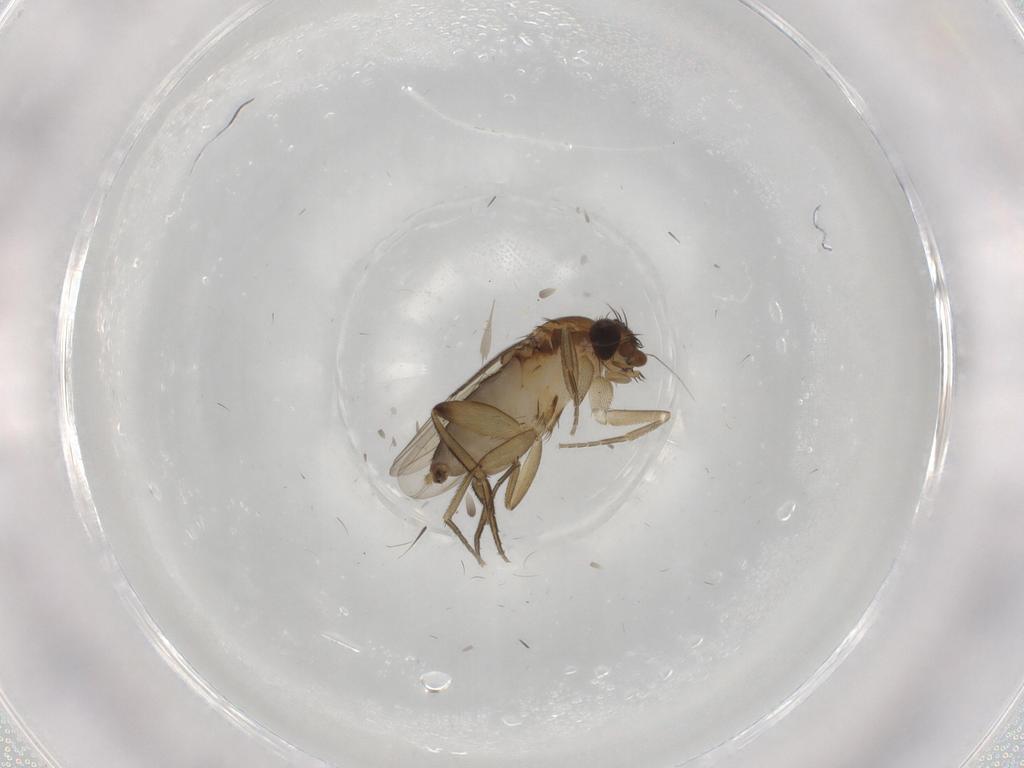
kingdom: Animalia
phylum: Arthropoda
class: Insecta
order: Diptera
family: Phoridae
